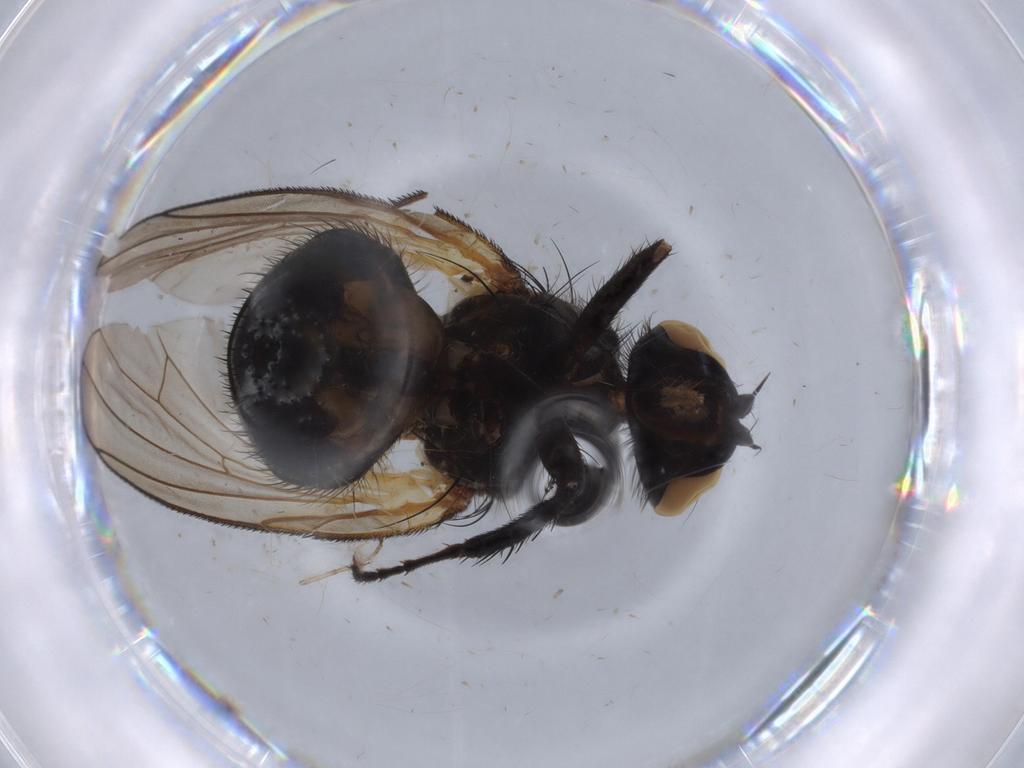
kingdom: Animalia
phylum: Arthropoda
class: Insecta
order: Diptera
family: Anthomyiidae
